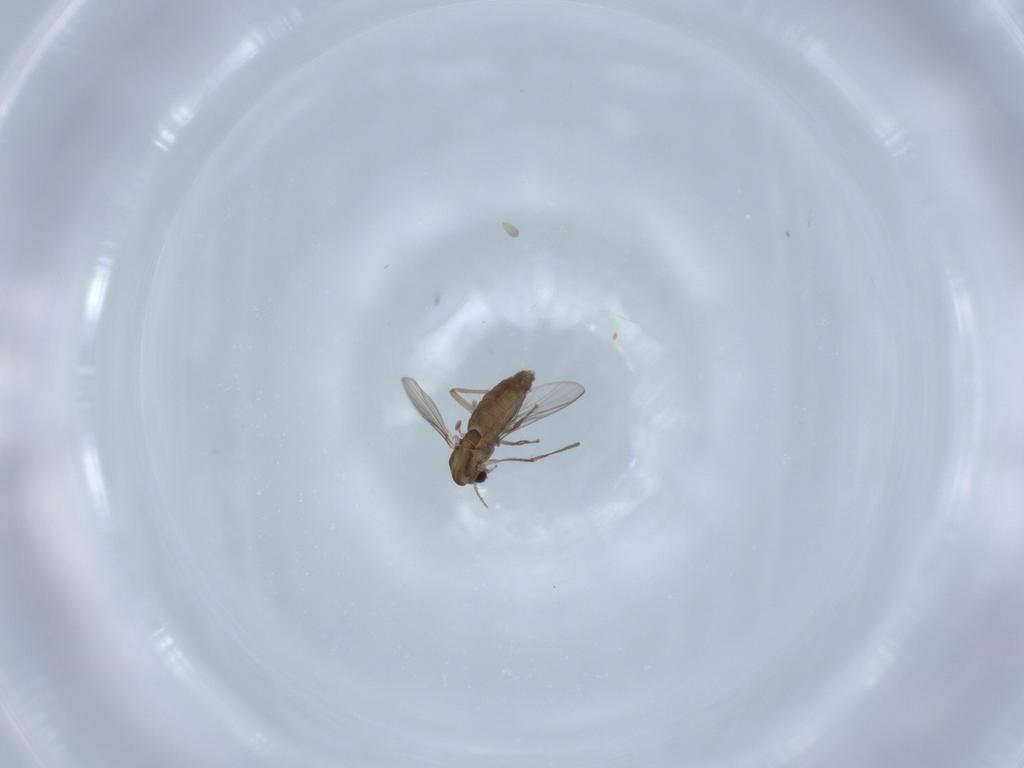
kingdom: Animalia
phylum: Arthropoda
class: Insecta
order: Diptera
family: Chironomidae
